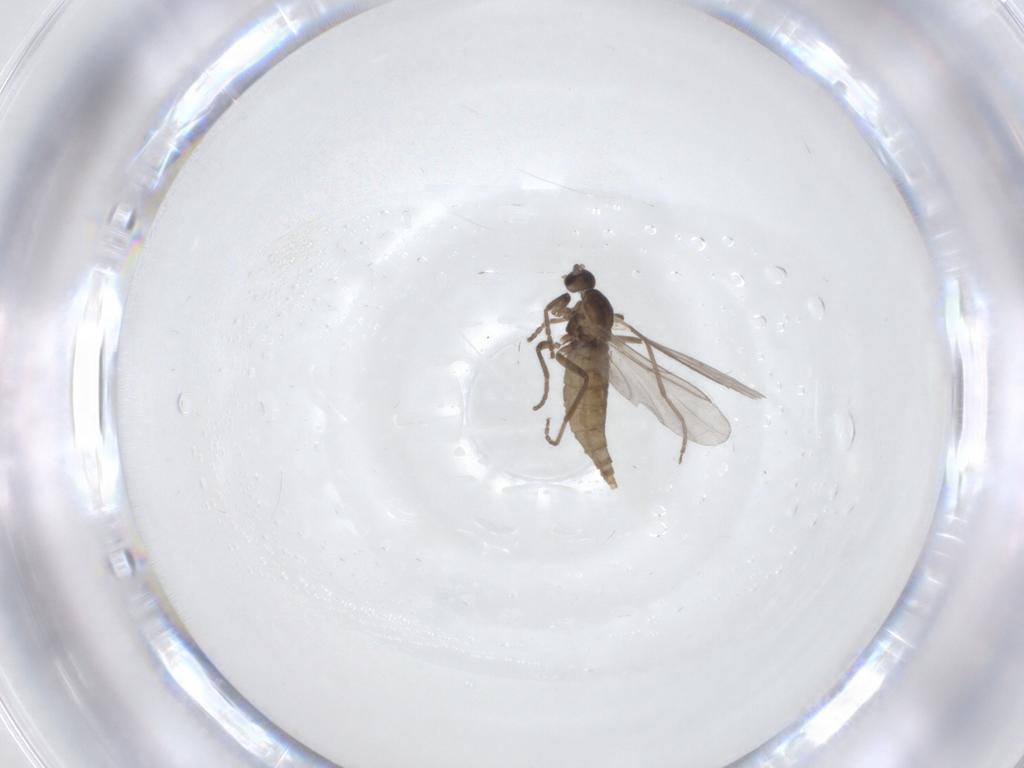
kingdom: Animalia
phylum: Arthropoda
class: Insecta
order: Diptera
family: Cecidomyiidae
